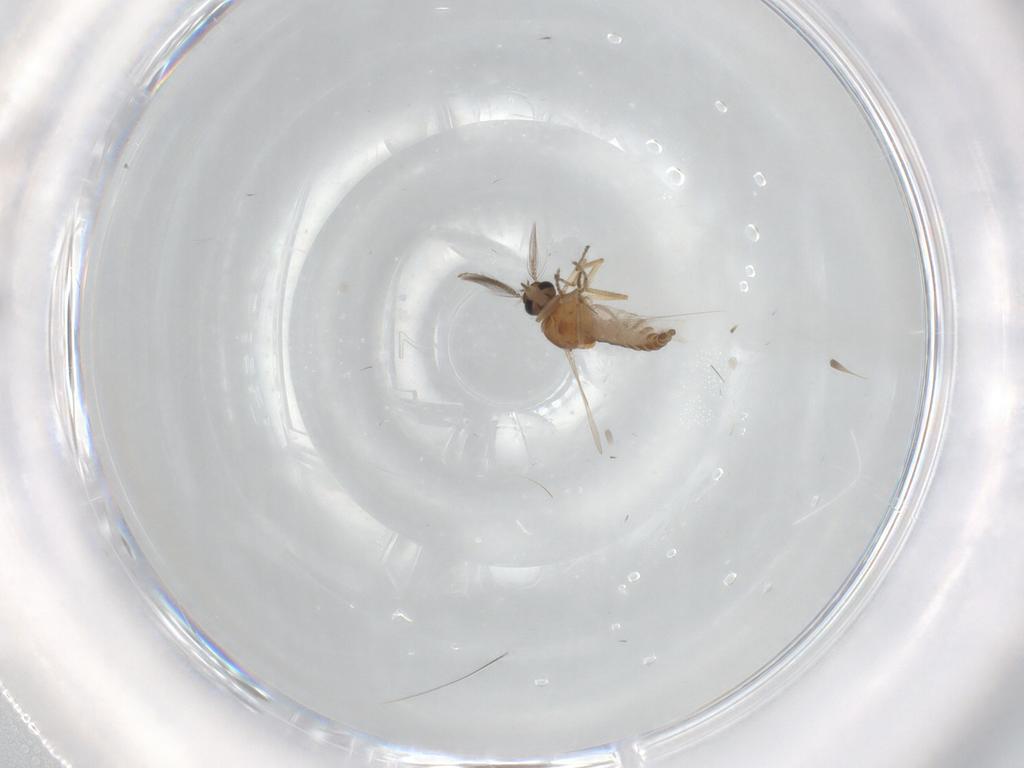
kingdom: Animalia
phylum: Arthropoda
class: Insecta
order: Diptera
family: Ceratopogonidae
